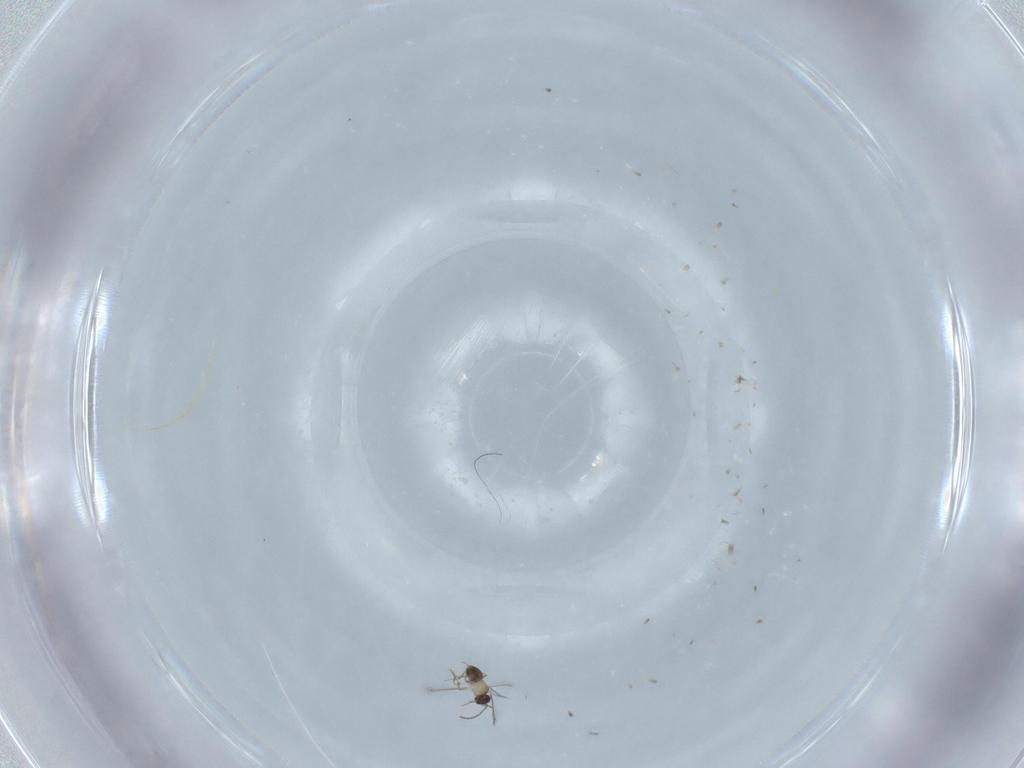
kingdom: Animalia
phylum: Arthropoda
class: Insecta
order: Hymenoptera
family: Mymaridae
